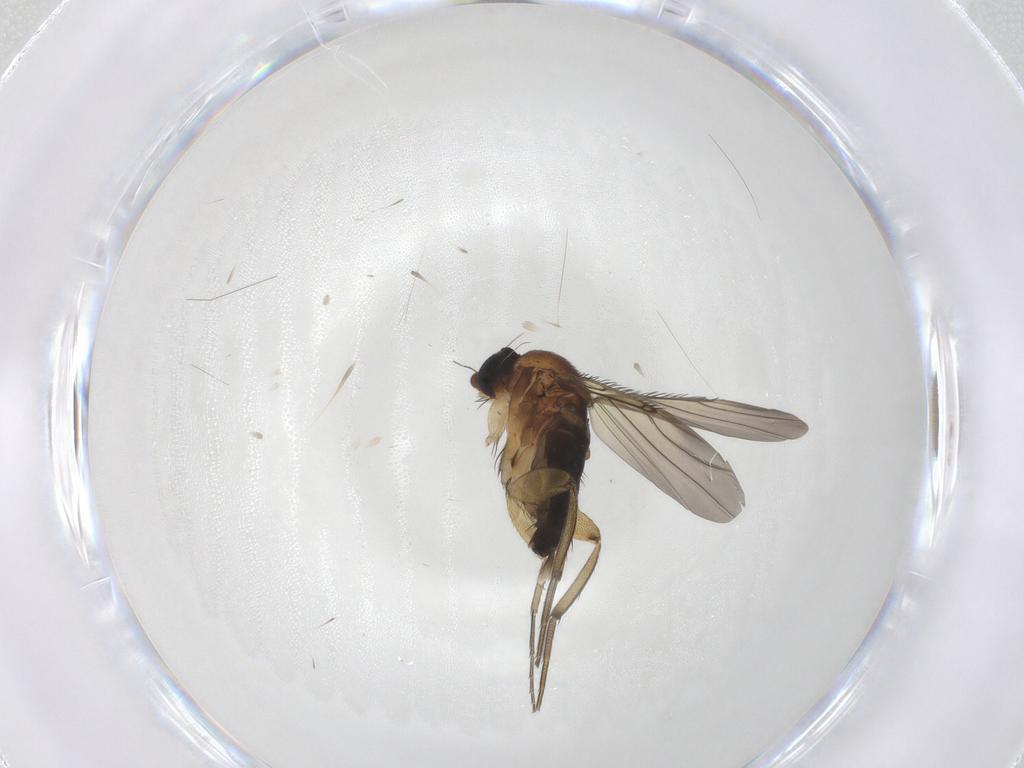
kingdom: Animalia
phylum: Arthropoda
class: Insecta
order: Diptera
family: Phoridae
